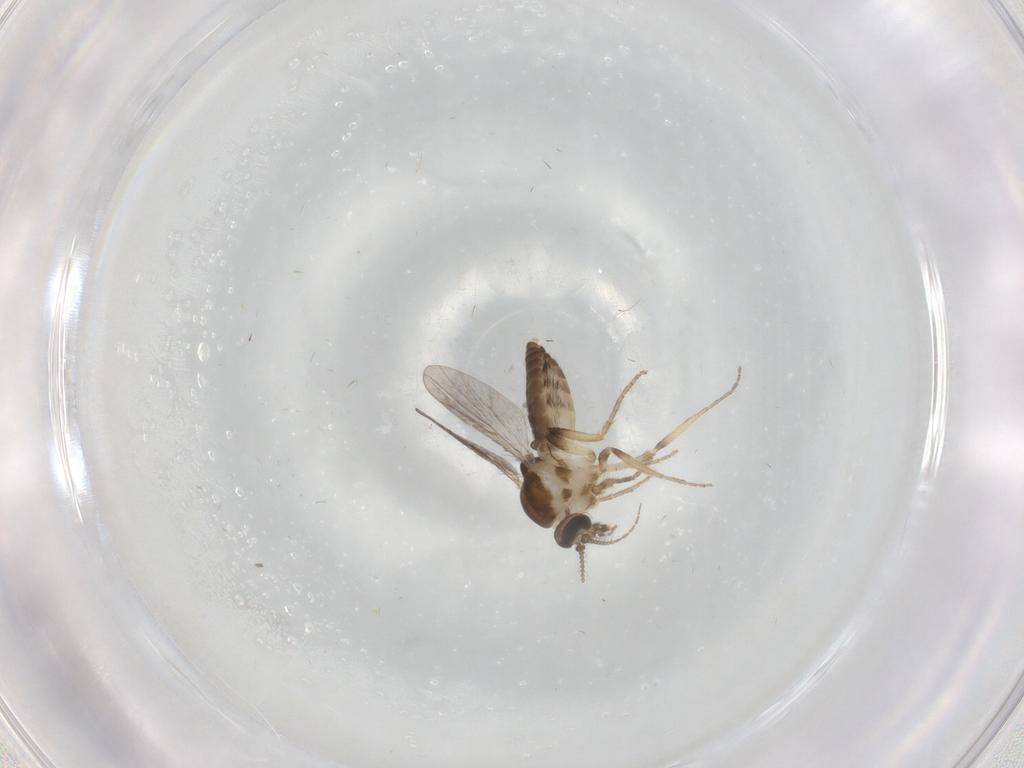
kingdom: Animalia
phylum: Arthropoda
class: Insecta
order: Diptera
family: Ceratopogonidae
